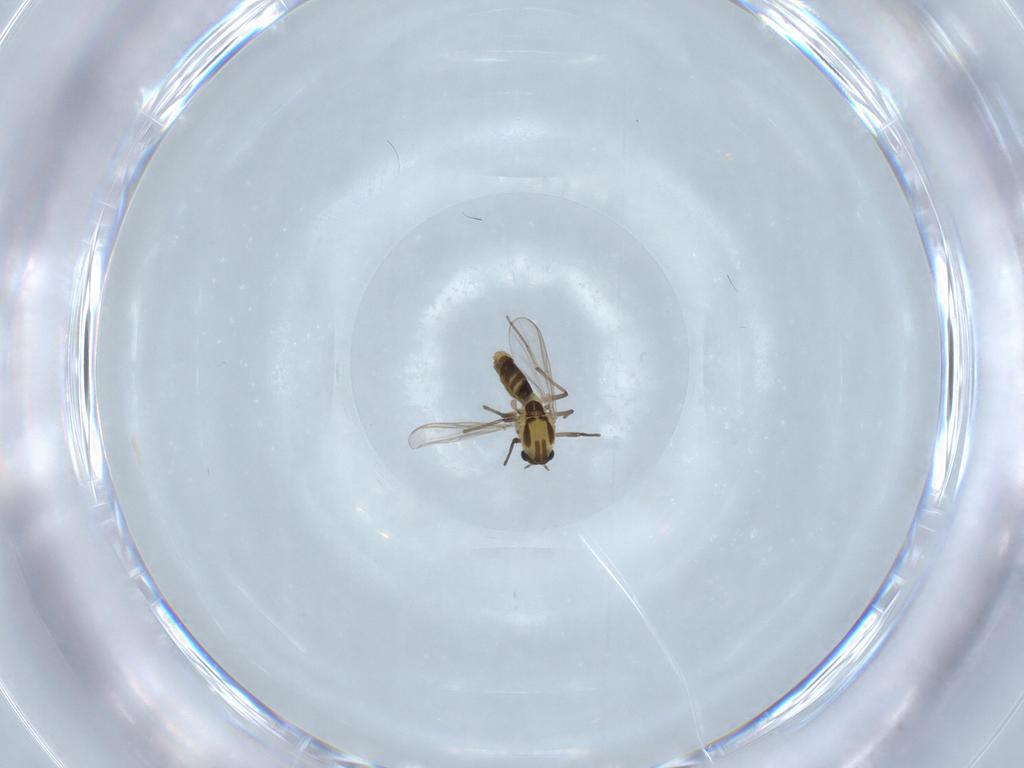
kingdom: Animalia
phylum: Arthropoda
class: Insecta
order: Diptera
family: Chironomidae
